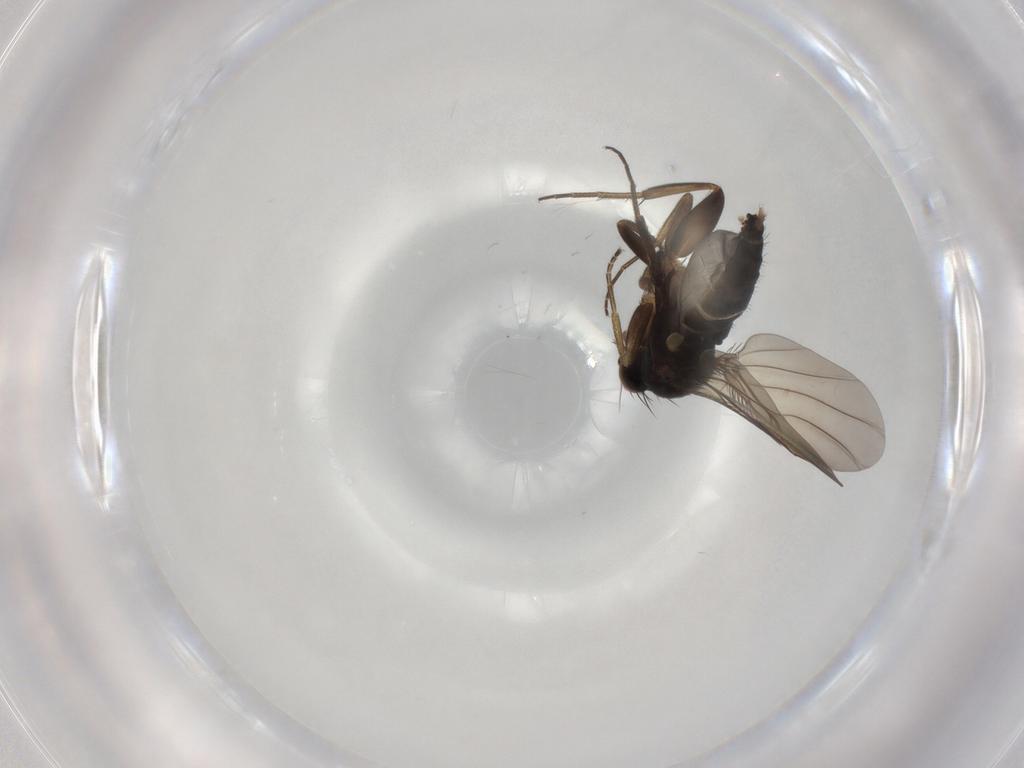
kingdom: Animalia
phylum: Arthropoda
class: Insecta
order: Diptera
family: Phoridae
